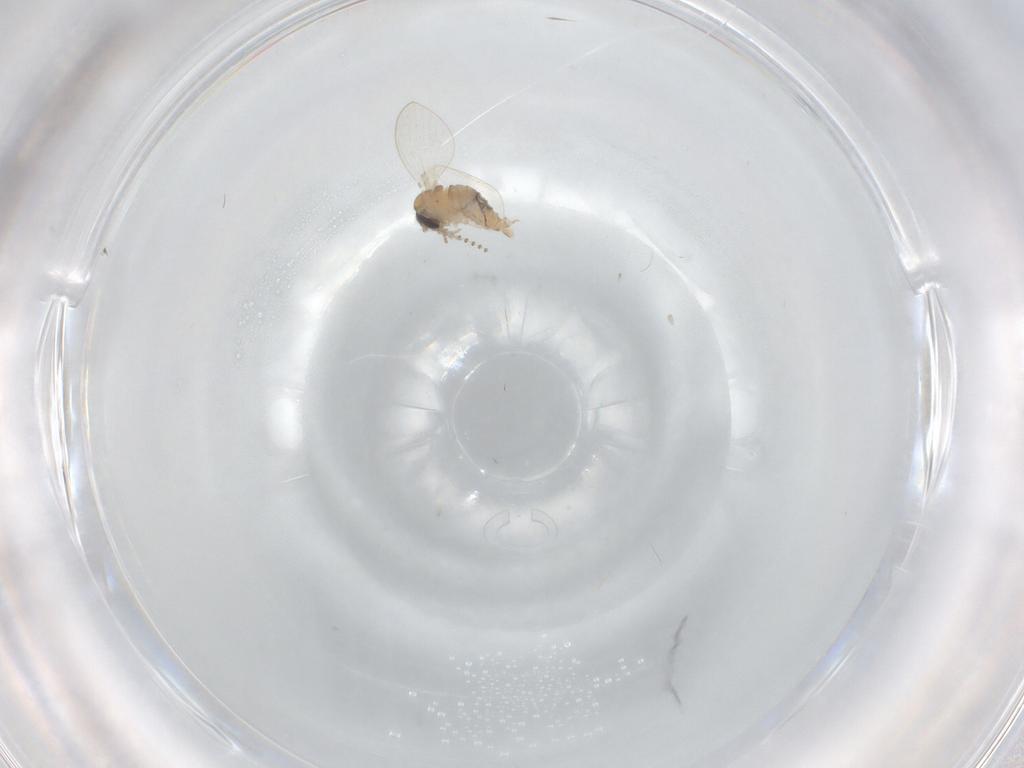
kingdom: Animalia
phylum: Arthropoda
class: Insecta
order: Diptera
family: Psychodidae
